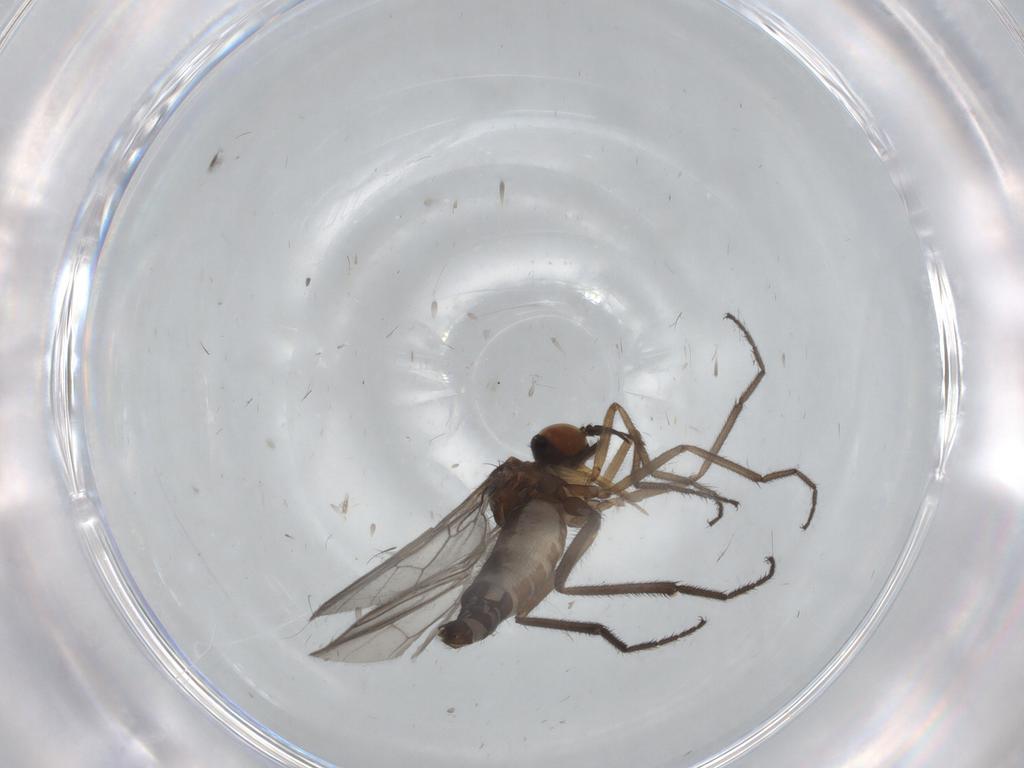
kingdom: Animalia
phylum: Arthropoda
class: Insecta
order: Diptera
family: Empididae
